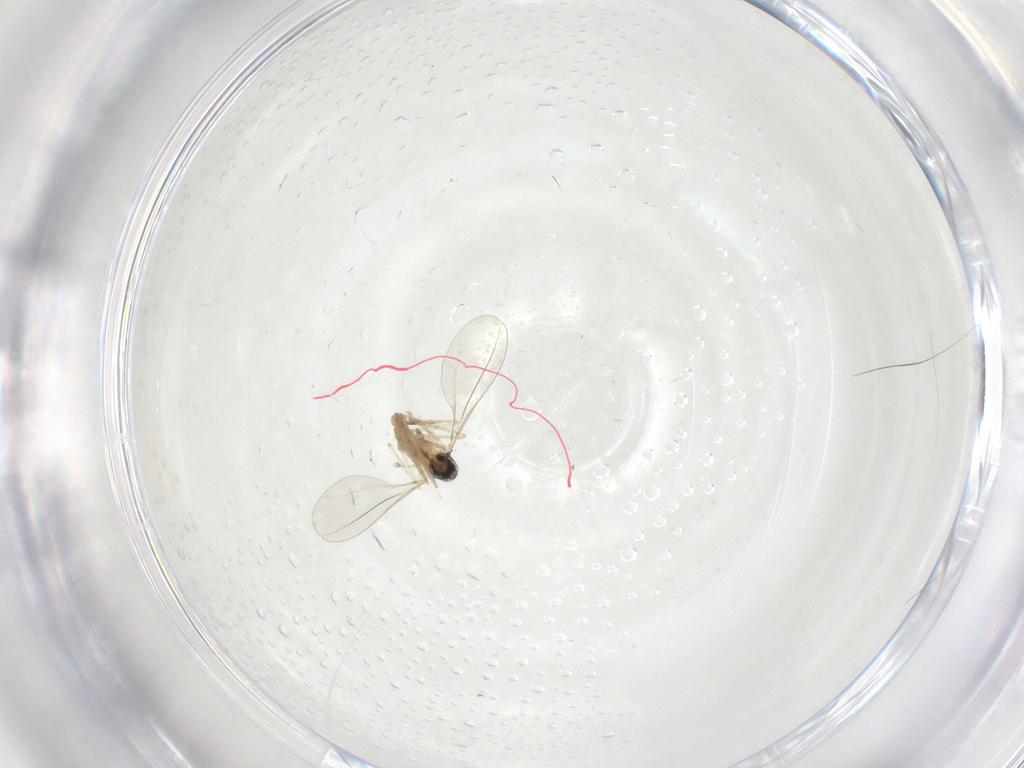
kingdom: Animalia
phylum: Arthropoda
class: Insecta
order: Diptera
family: Phoridae
